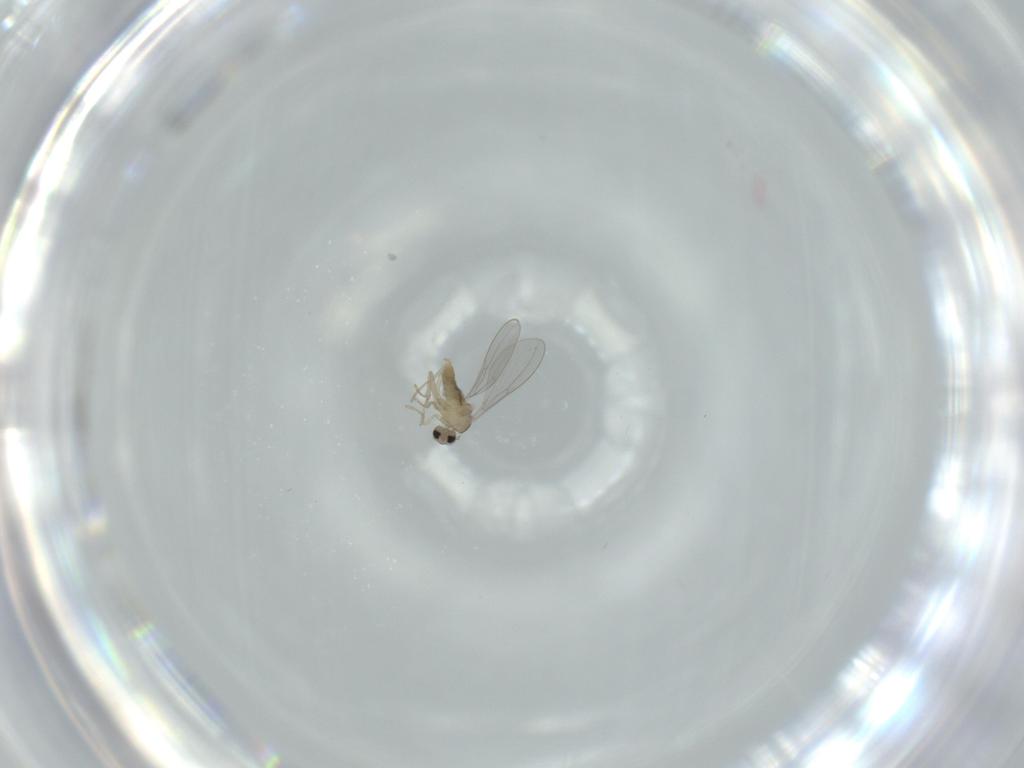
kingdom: Animalia
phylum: Arthropoda
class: Insecta
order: Diptera
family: Cecidomyiidae
